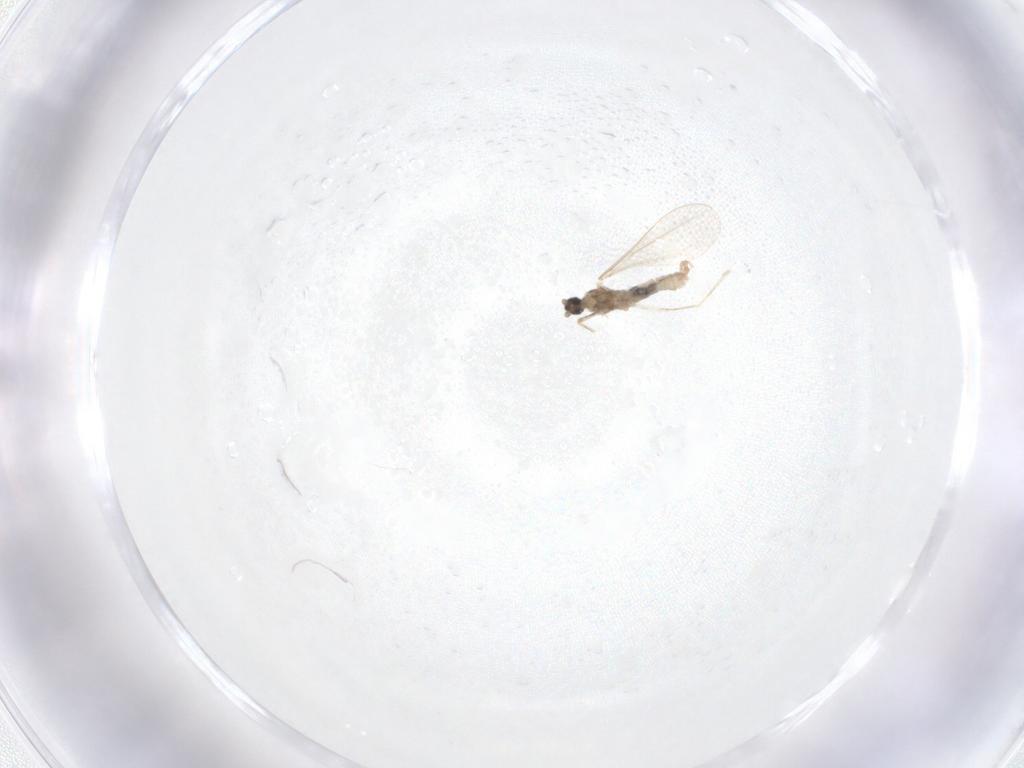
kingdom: Animalia
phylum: Arthropoda
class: Insecta
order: Diptera
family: Cecidomyiidae
